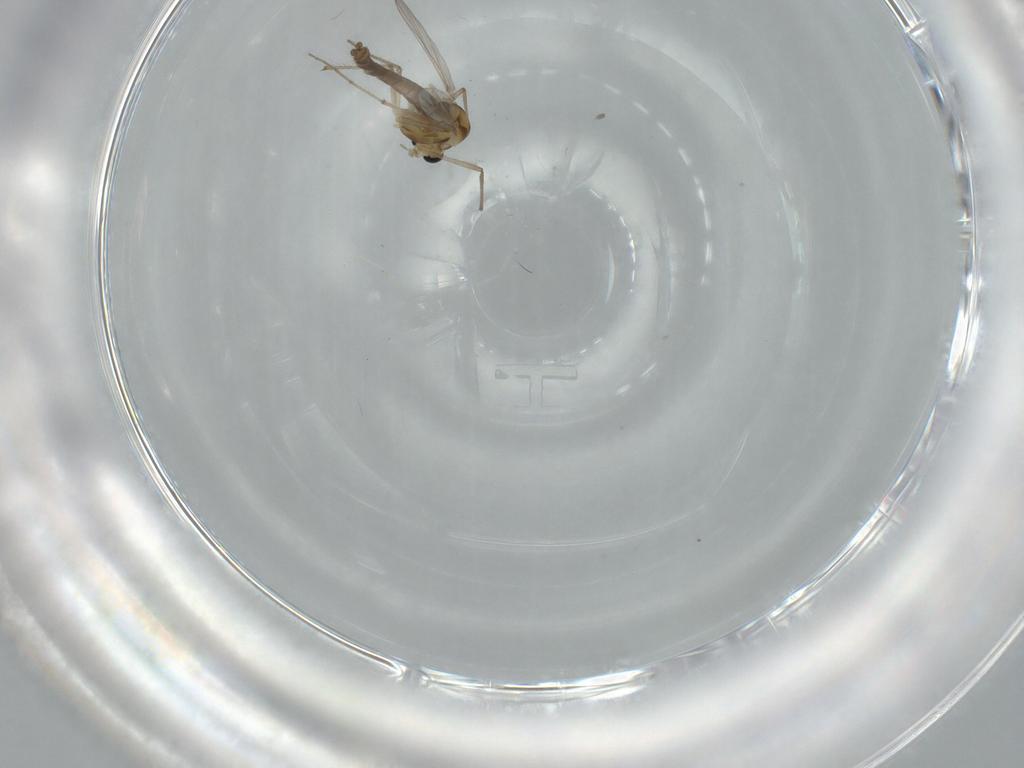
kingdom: Animalia
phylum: Arthropoda
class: Insecta
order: Diptera
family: Chironomidae
